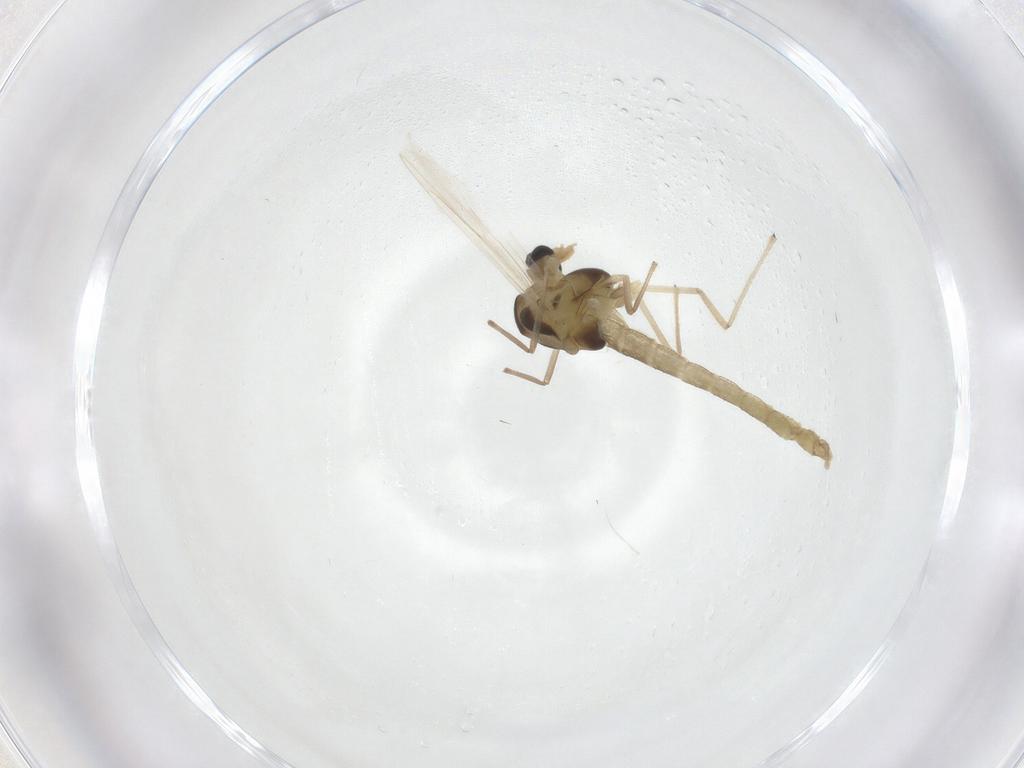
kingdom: Animalia
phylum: Arthropoda
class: Insecta
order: Diptera
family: Chironomidae
